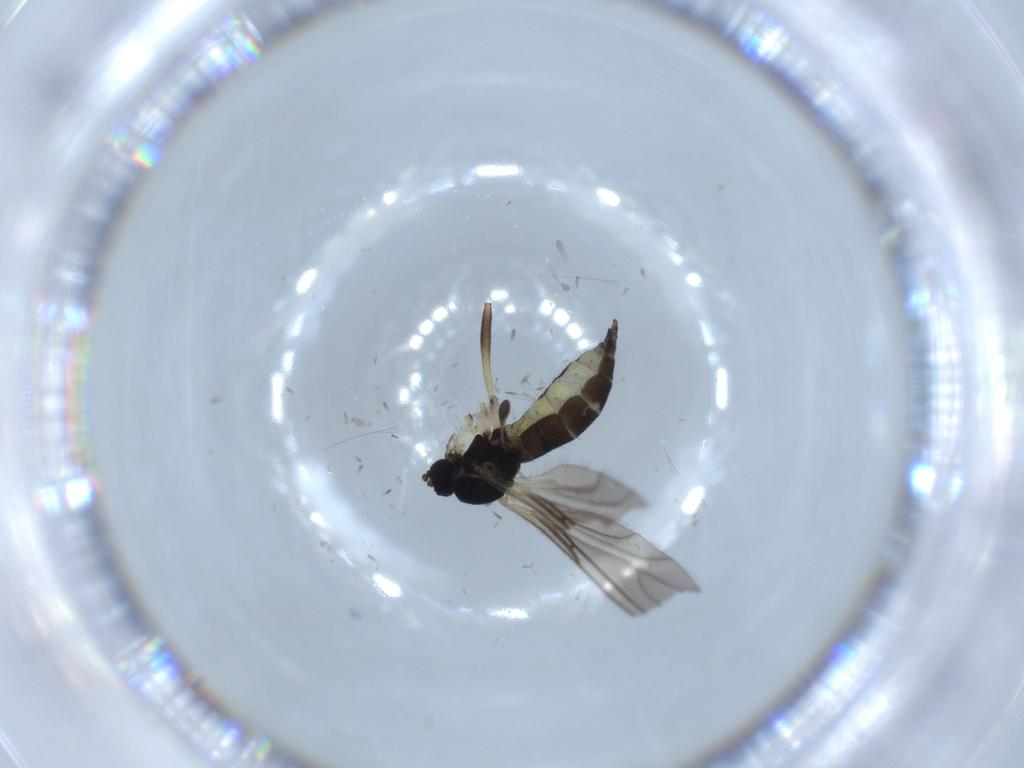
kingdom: Animalia
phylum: Arthropoda
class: Insecta
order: Diptera
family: Sciaridae
